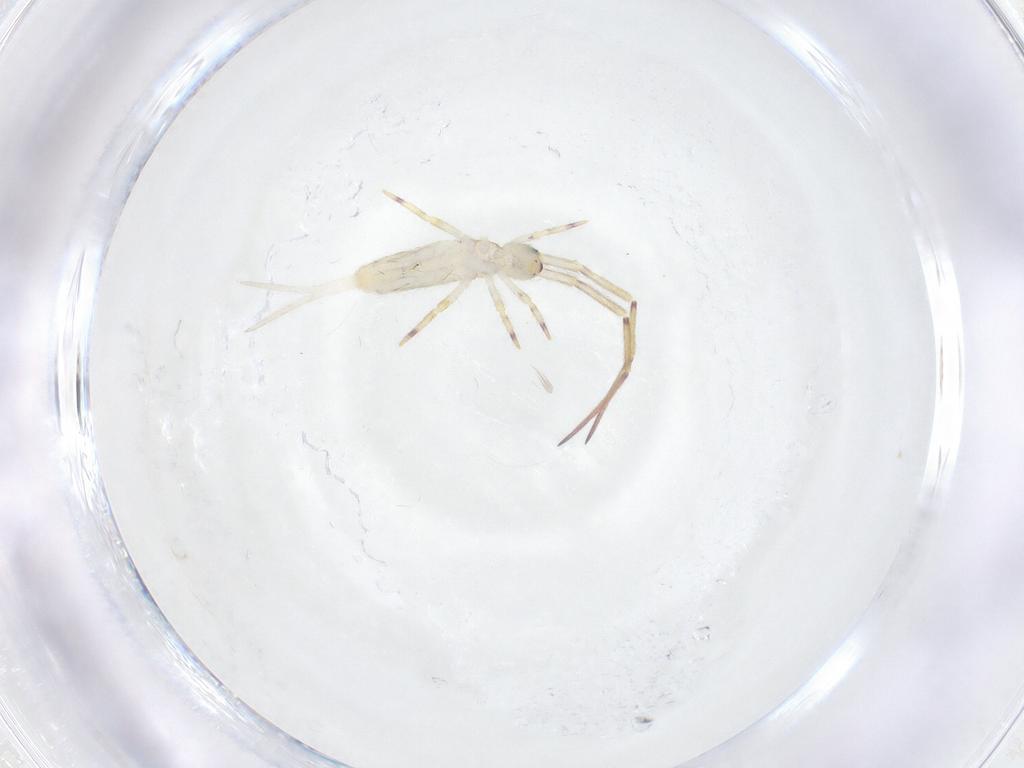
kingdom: Animalia
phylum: Arthropoda
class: Collembola
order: Entomobryomorpha
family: Entomobryidae
